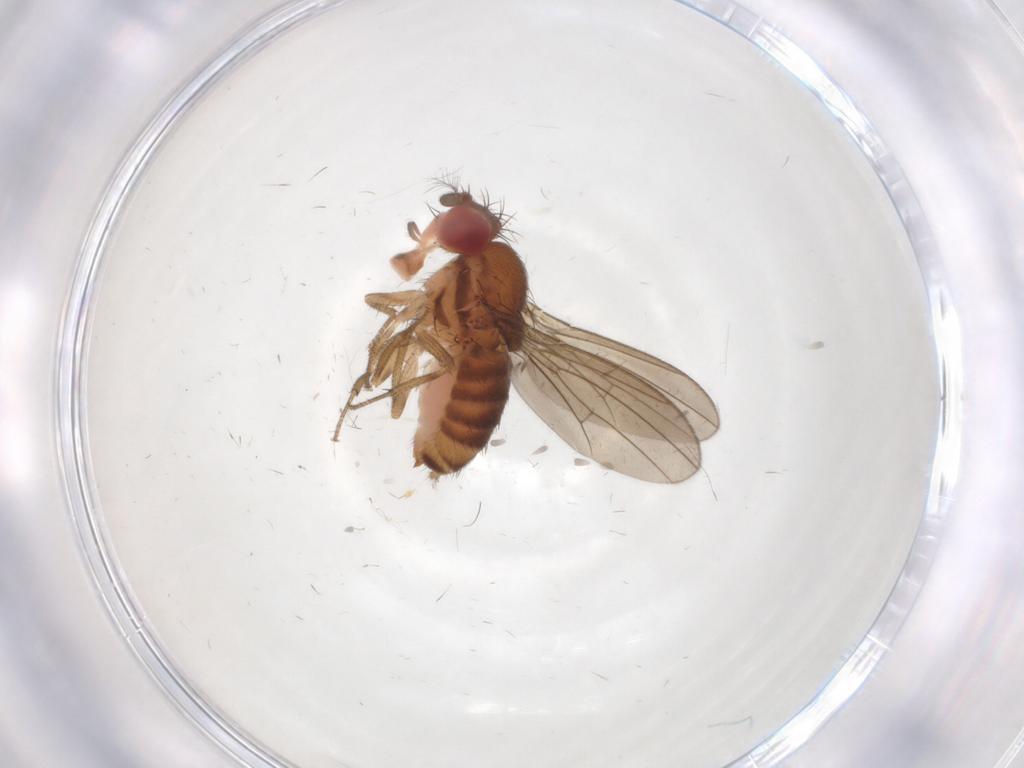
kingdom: Animalia
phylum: Arthropoda
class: Insecta
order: Diptera
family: Drosophilidae
